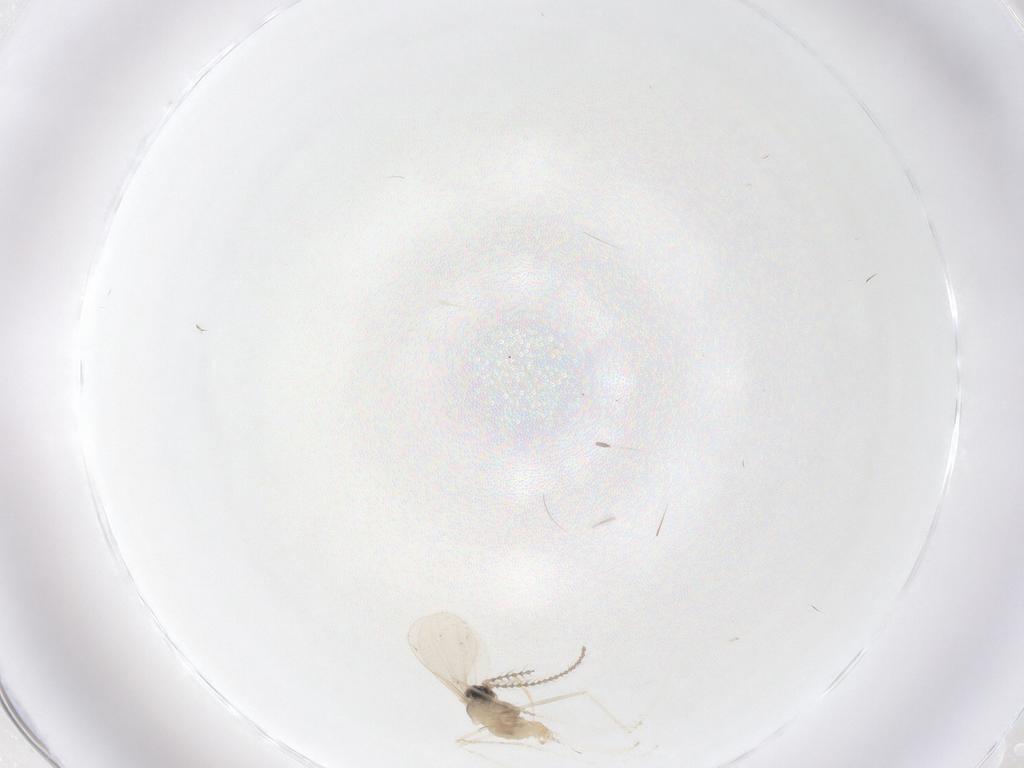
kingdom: Animalia
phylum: Arthropoda
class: Insecta
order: Diptera
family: Cecidomyiidae
